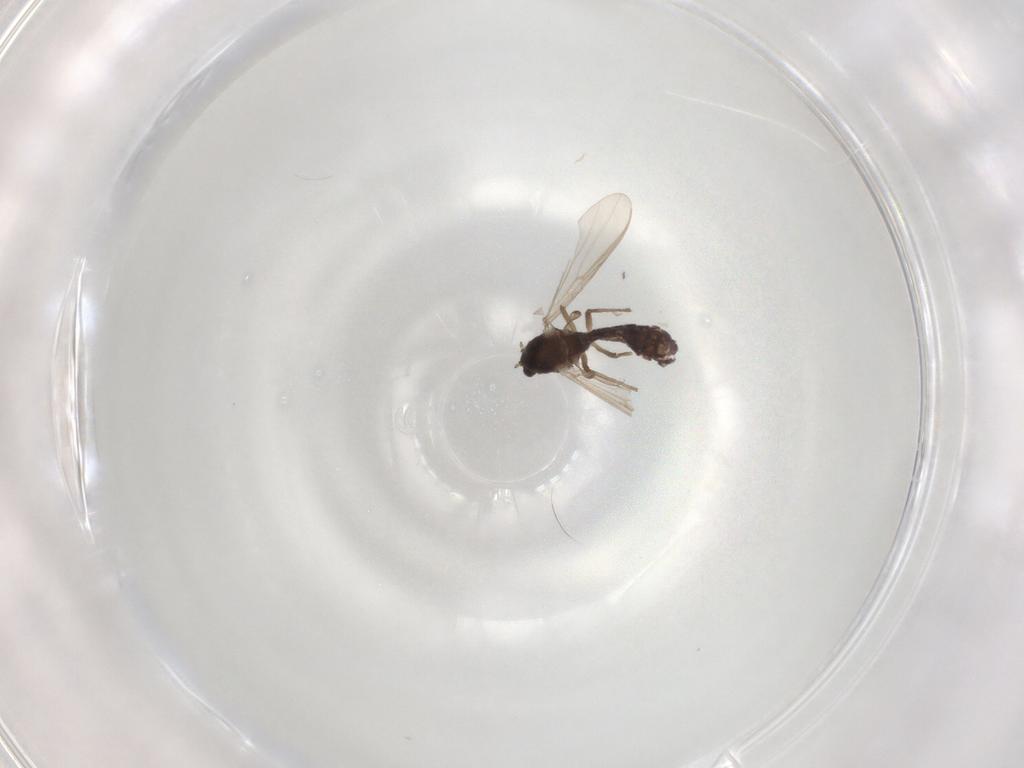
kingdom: Animalia
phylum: Arthropoda
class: Insecta
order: Diptera
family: Chironomidae
